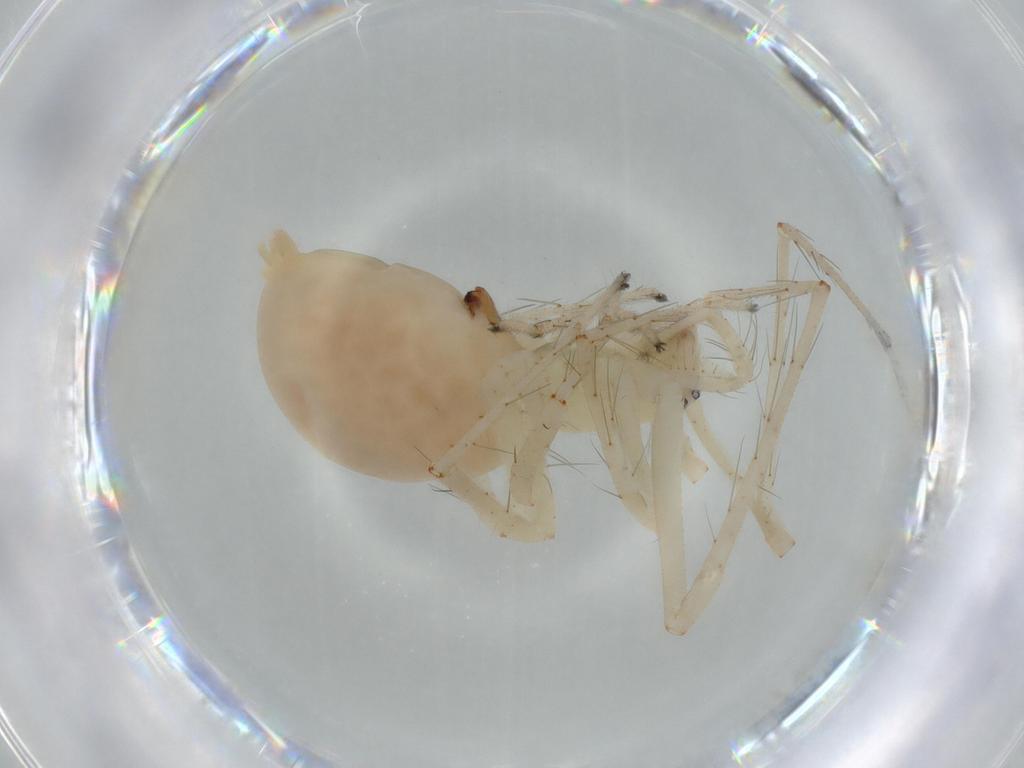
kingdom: Animalia
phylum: Arthropoda
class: Arachnida
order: Araneae
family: Anyphaenidae
